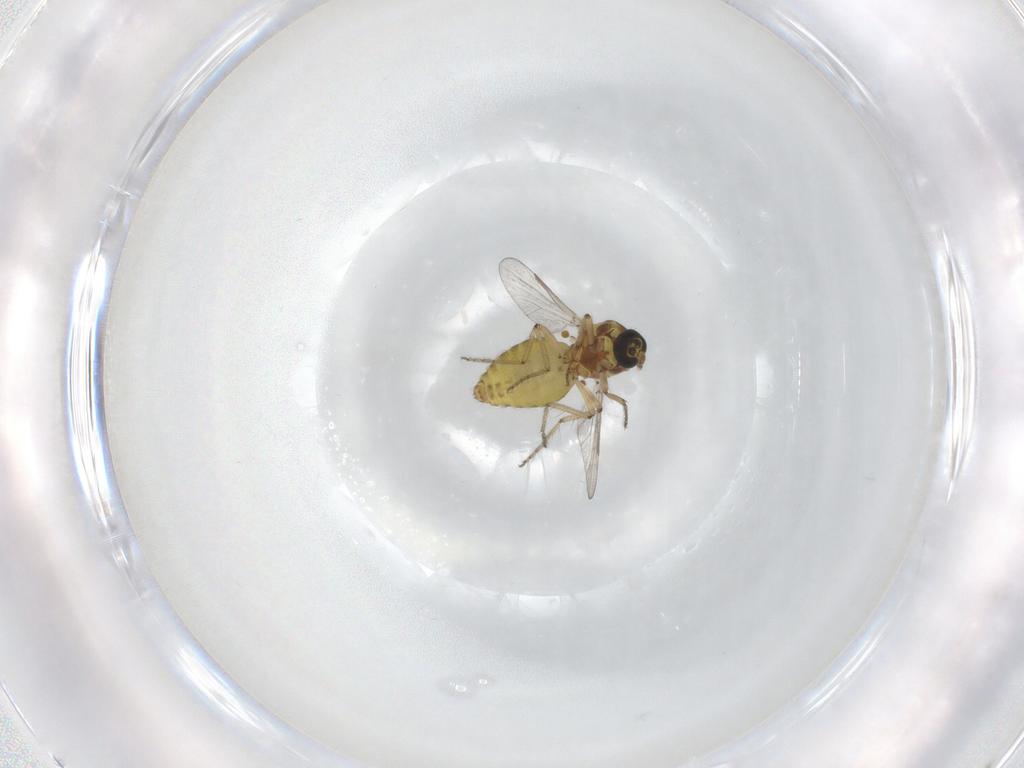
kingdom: Animalia
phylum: Arthropoda
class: Insecta
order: Diptera
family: Ceratopogonidae
